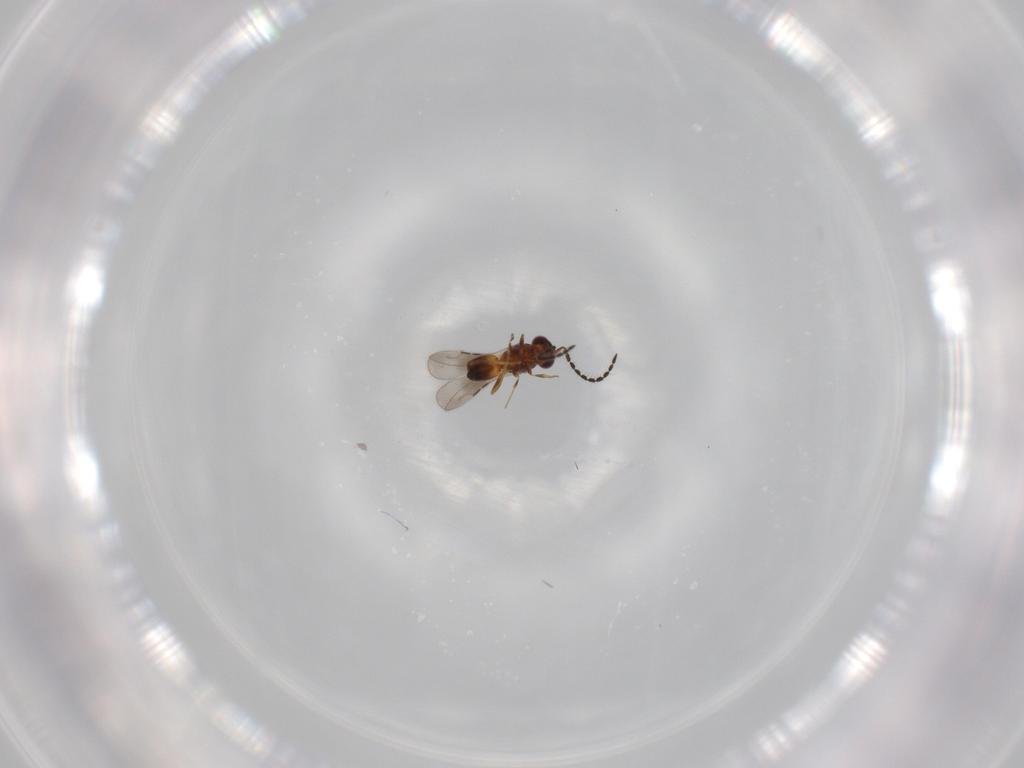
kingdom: Animalia
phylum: Arthropoda
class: Insecta
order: Hymenoptera
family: Ceraphronidae
